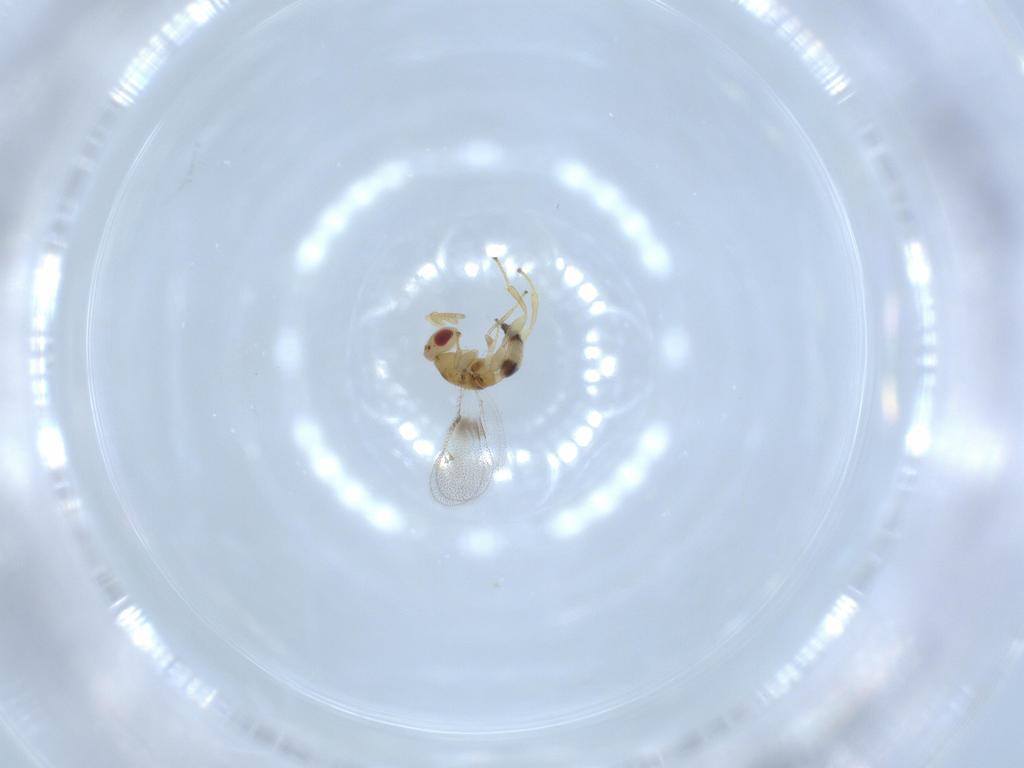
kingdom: Animalia
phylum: Arthropoda
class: Insecta
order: Hymenoptera
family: Torymidae
